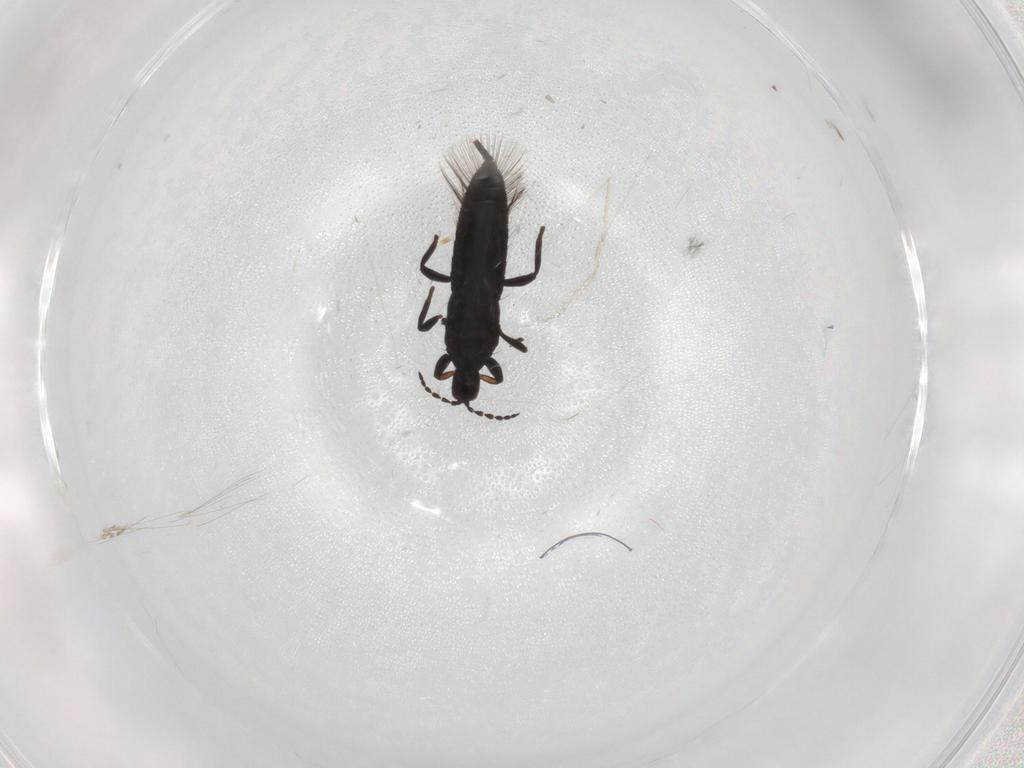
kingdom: Animalia
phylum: Arthropoda
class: Insecta
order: Thysanoptera
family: Phlaeothripidae
